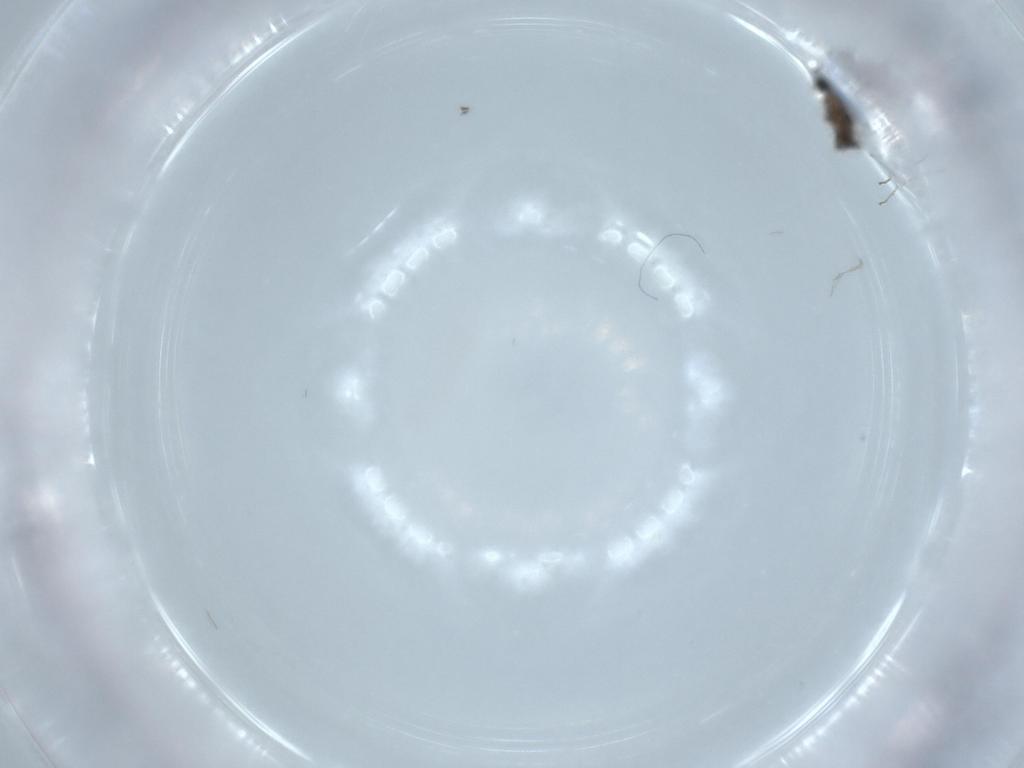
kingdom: Animalia
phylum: Arthropoda
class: Insecta
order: Diptera
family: Cecidomyiidae
